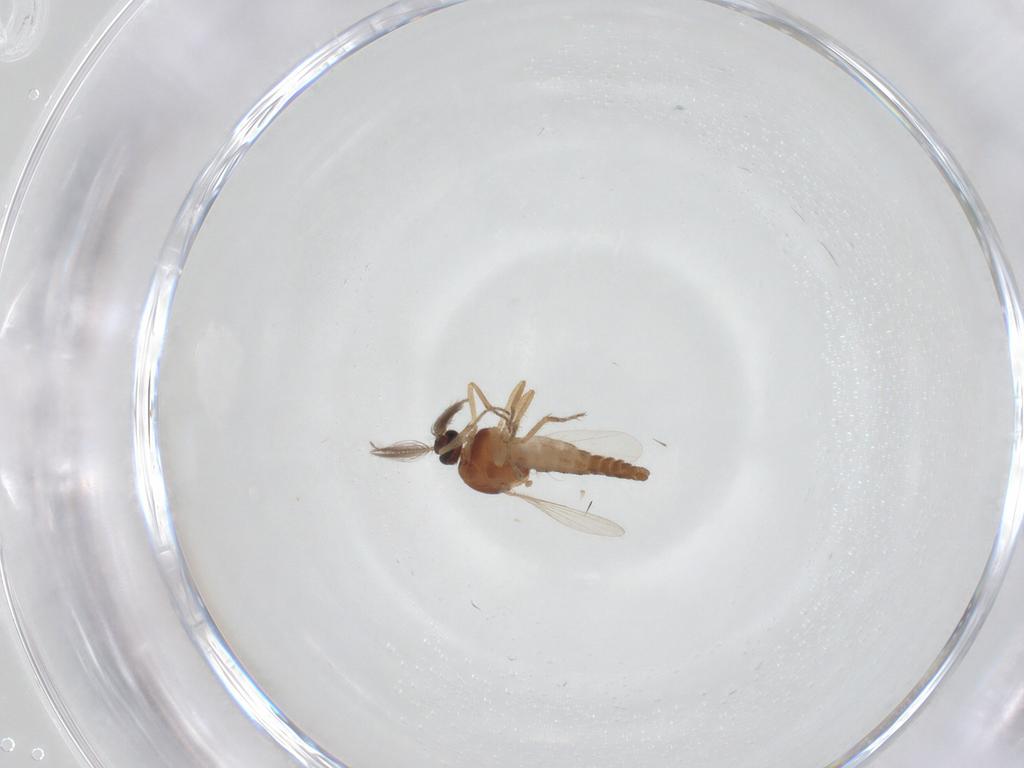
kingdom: Animalia
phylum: Arthropoda
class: Insecta
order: Diptera
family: Ceratopogonidae
